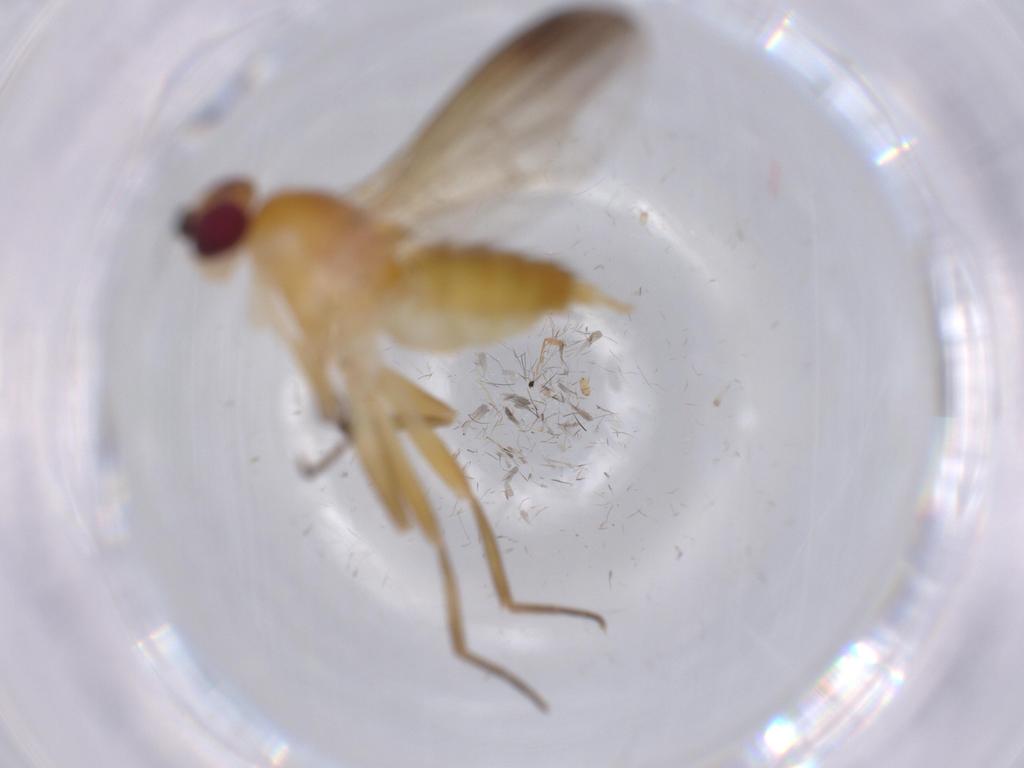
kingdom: Animalia
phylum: Arthropoda
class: Insecta
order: Diptera
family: Clusiidae
